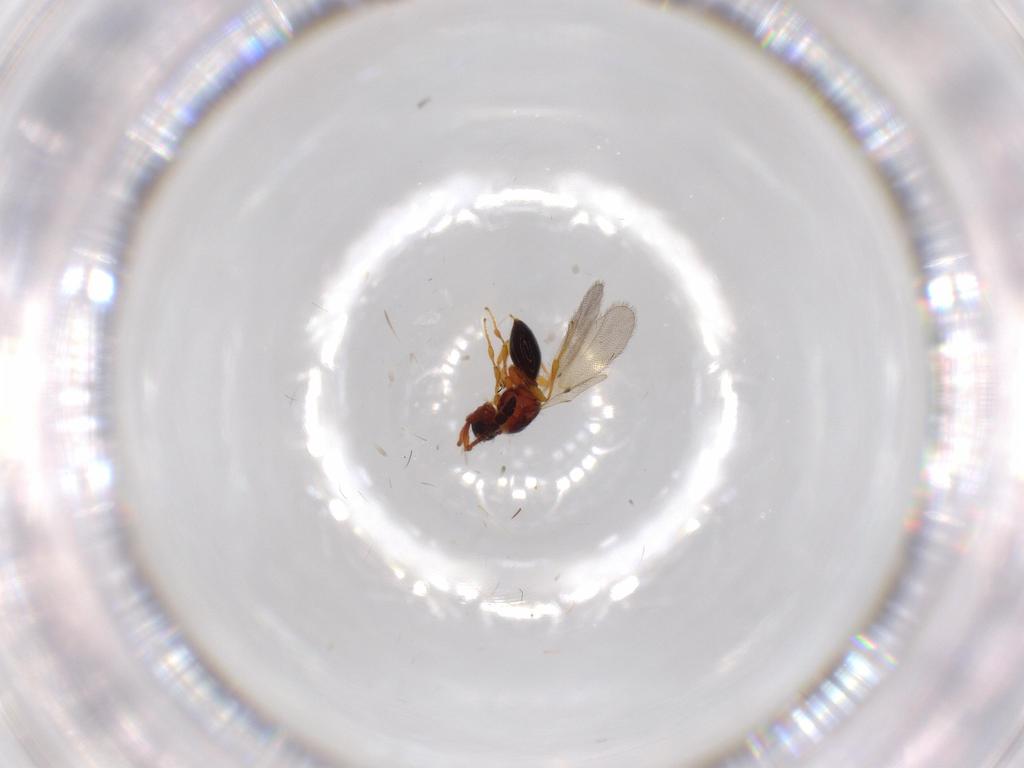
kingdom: Animalia
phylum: Arthropoda
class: Insecta
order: Hymenoptera
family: Diapriidae
